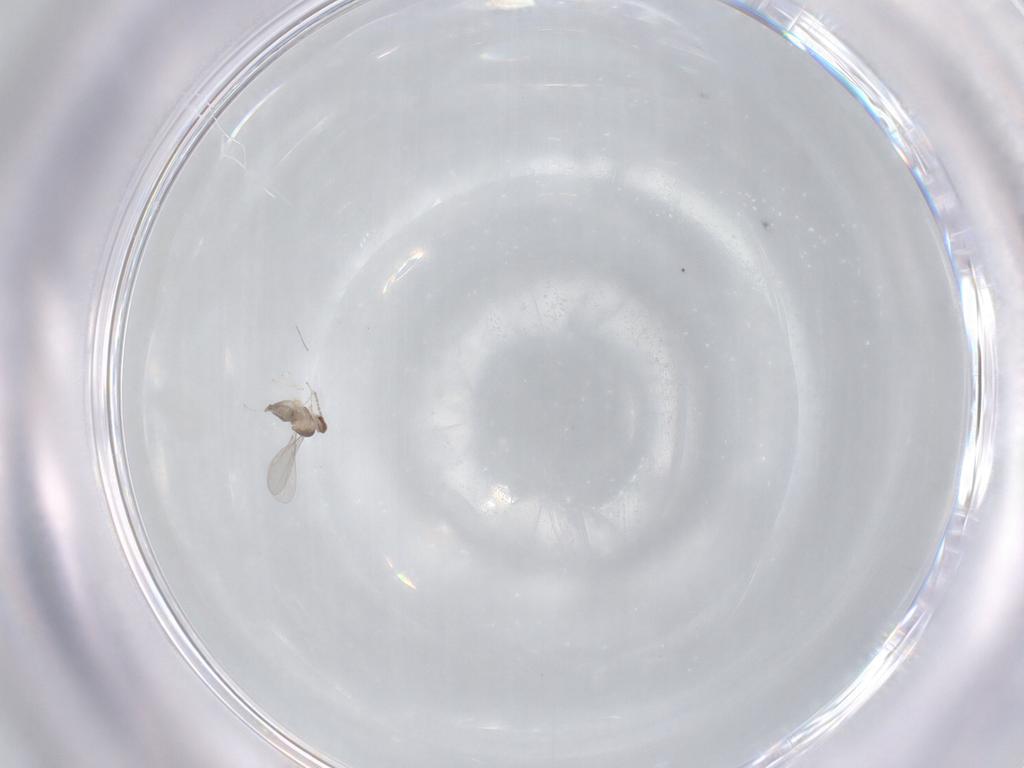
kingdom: Animalia
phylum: Arthropoda
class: Insecta
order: Diptera
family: Cecidomyiidae
